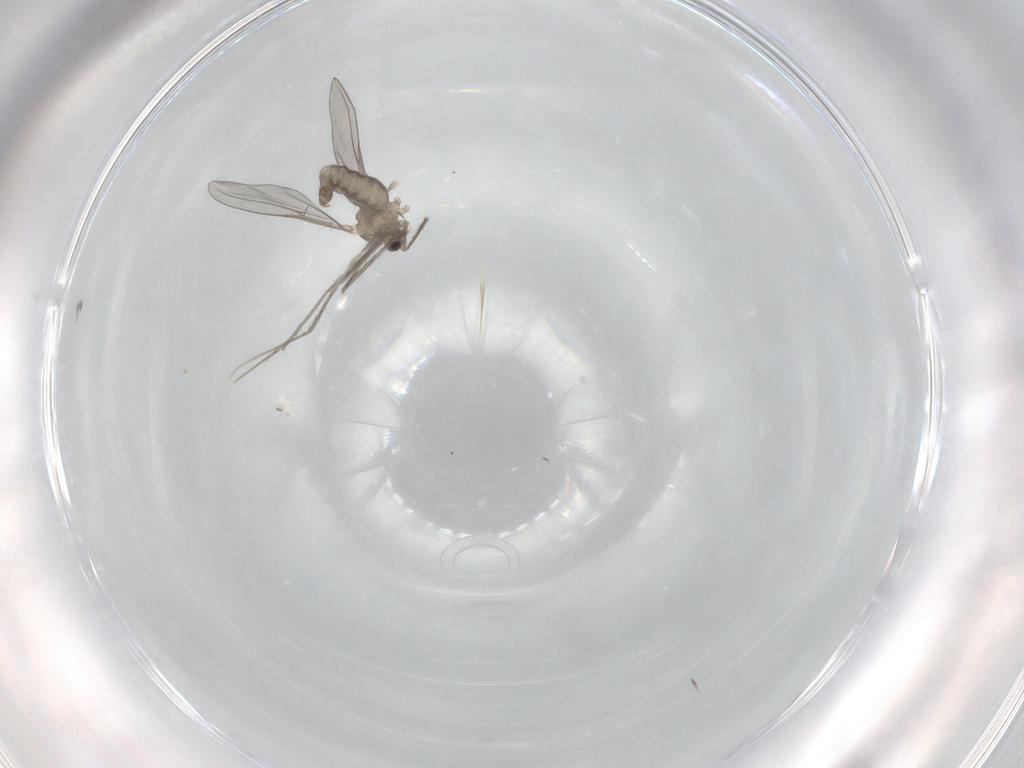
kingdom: Animalia
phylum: Arthropoda
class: Insecta
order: Diptera
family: Cecidomyiidae
